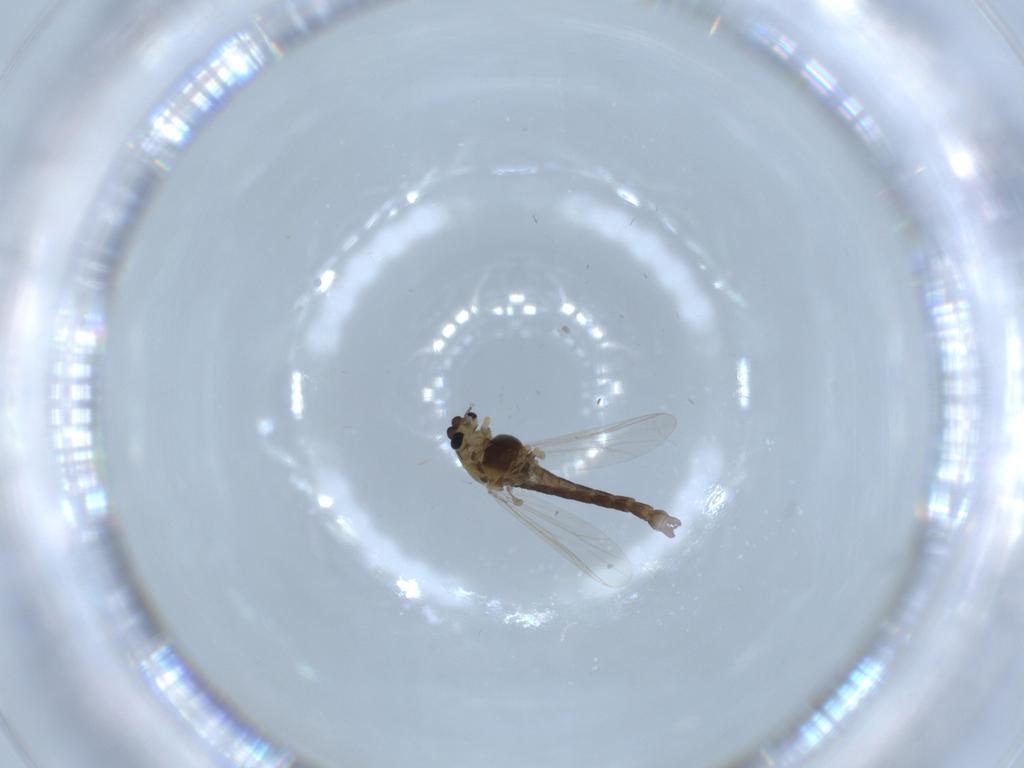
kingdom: Animalia
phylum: Arthropoda
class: Insecta
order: Diptera
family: Chironomidae
